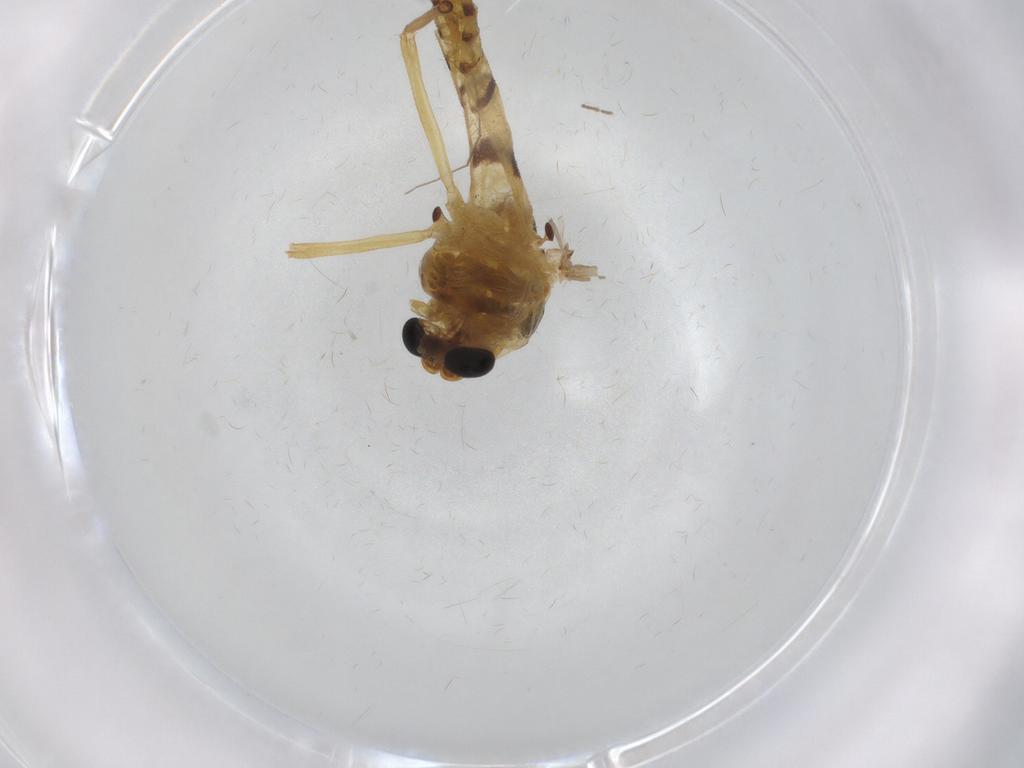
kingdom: Animalia
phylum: Arthropoda
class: Insecta
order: Diptera
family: Chironomidae
